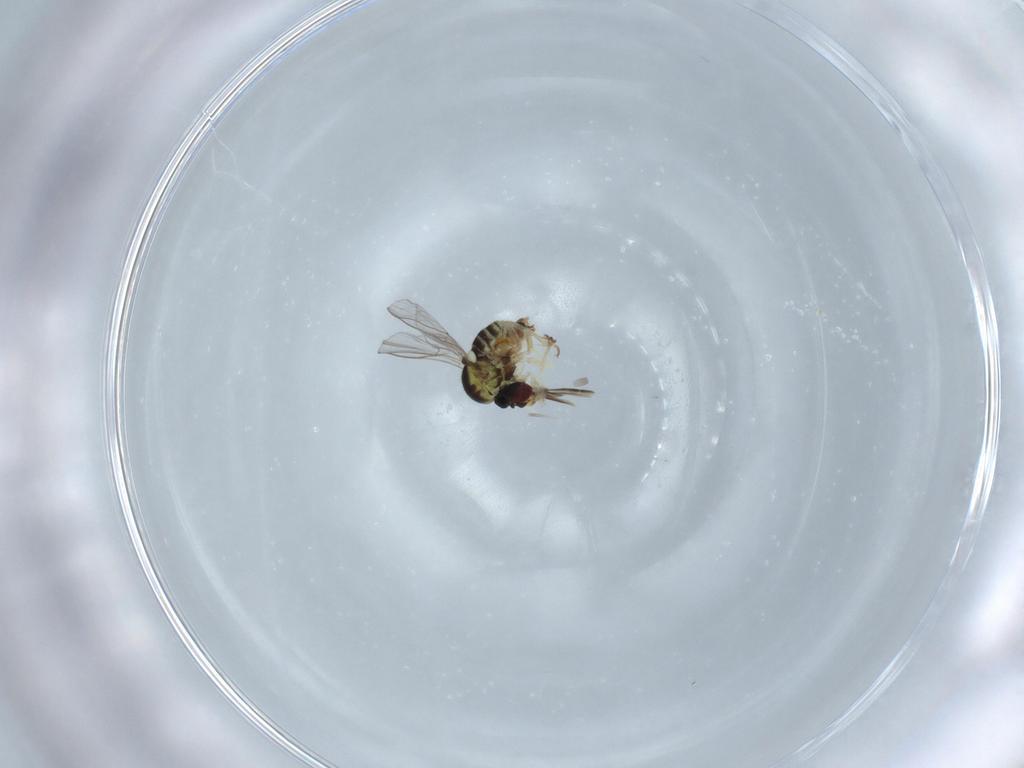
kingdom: Animalia
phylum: Arthropoda
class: Insecta
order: Diptera
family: Bombyliidae
